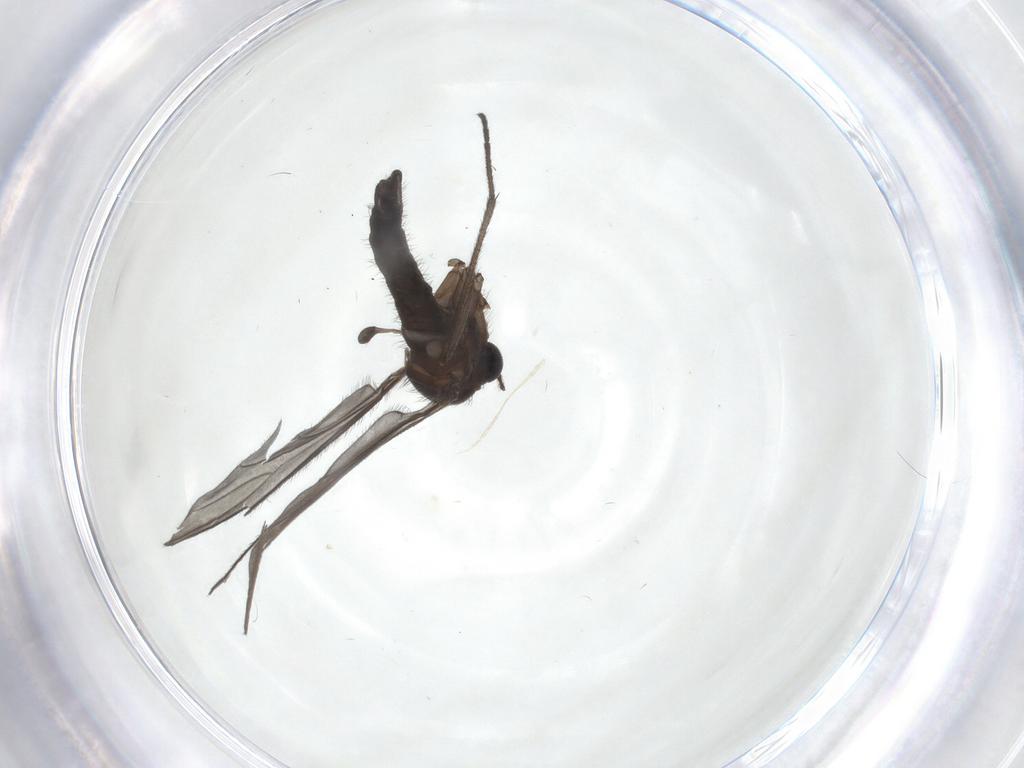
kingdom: Animalia
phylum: Arthropoda
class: Insecta
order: Diptera
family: Sciaridae
